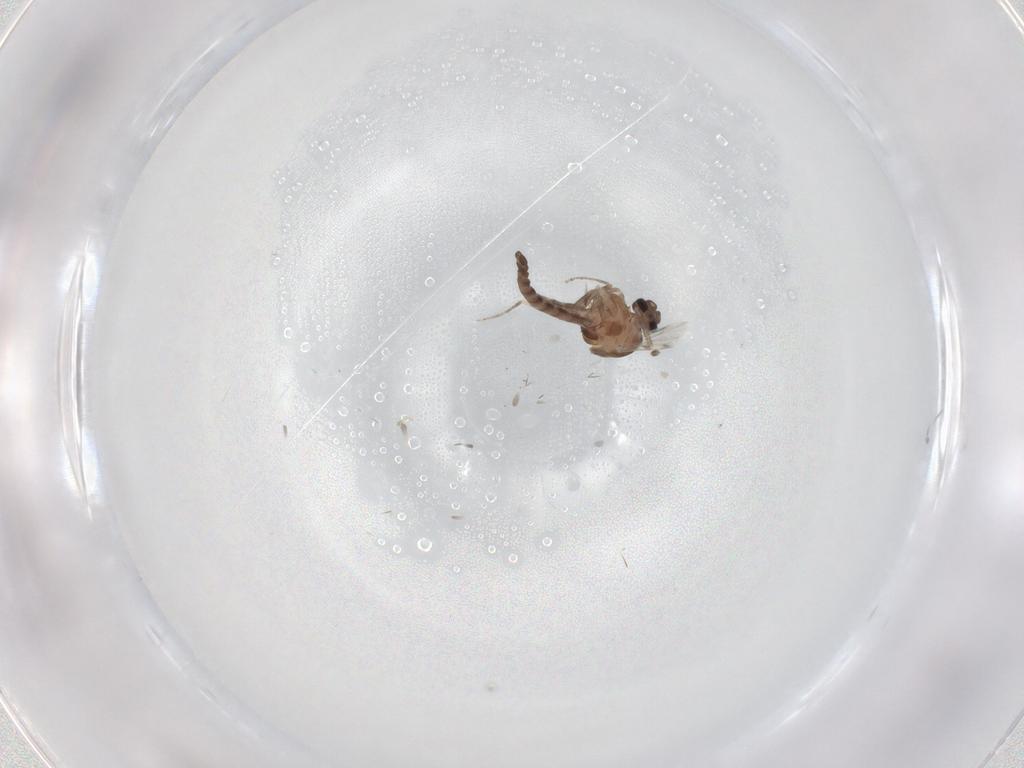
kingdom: Animalia
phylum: Arthropoda
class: Insecta
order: Diptera
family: Ceratopogonidae
